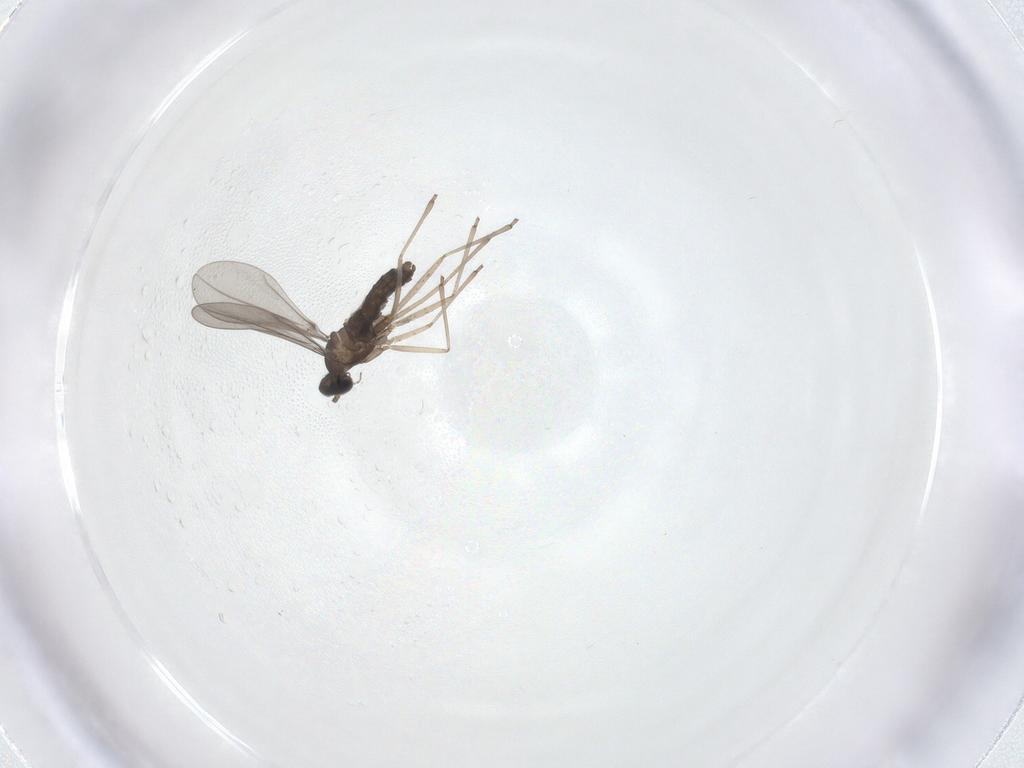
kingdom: Animalia
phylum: Arthropoda
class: Insecta
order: Diptera
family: Cecidomyiidae
